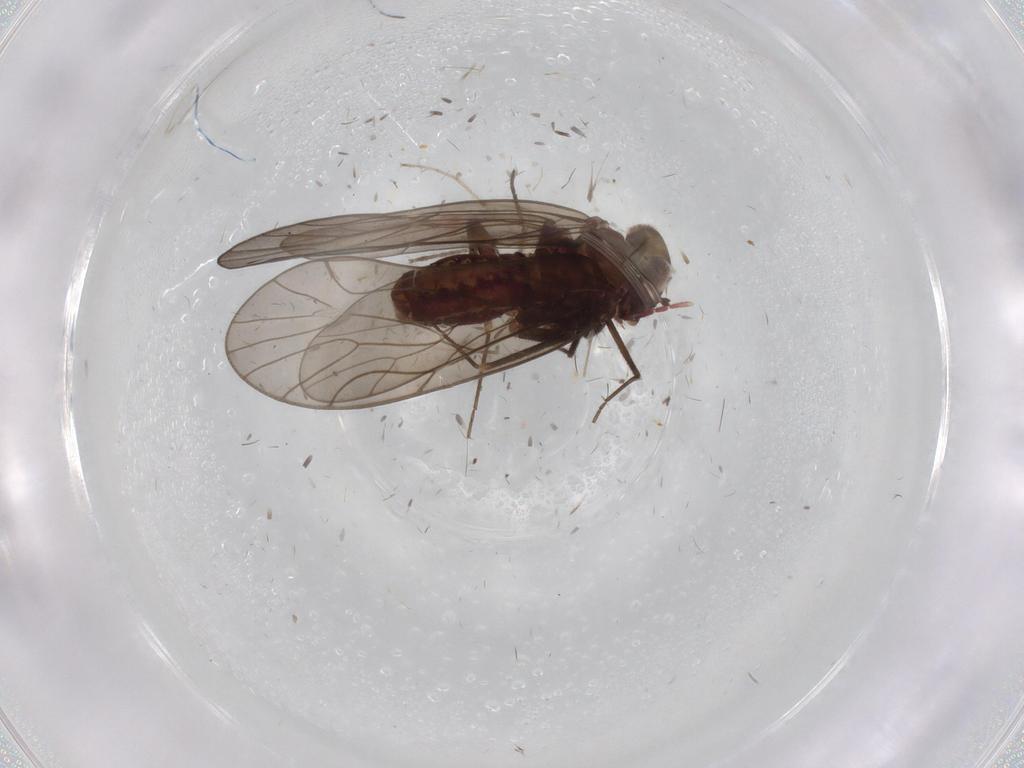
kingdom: Animalia
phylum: Arthropoda
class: Insecta
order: Psocodea
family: Philotarsidae
